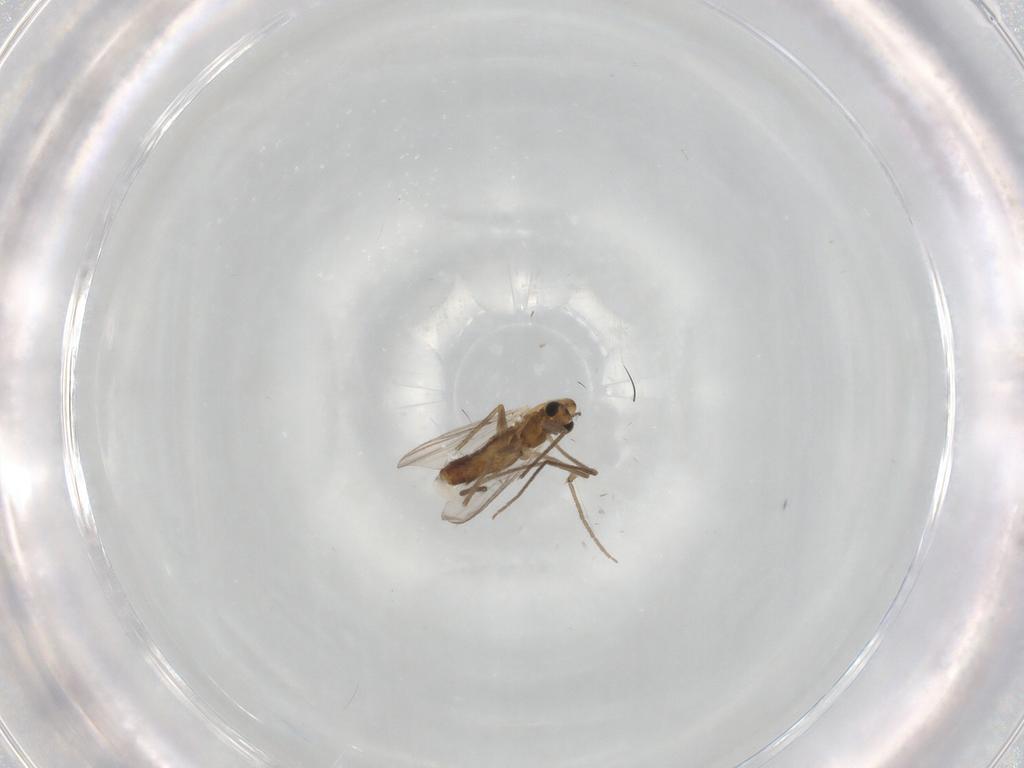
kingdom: Animalia
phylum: Arthropoda
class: Insecta
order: Diptera
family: Chironomidae
